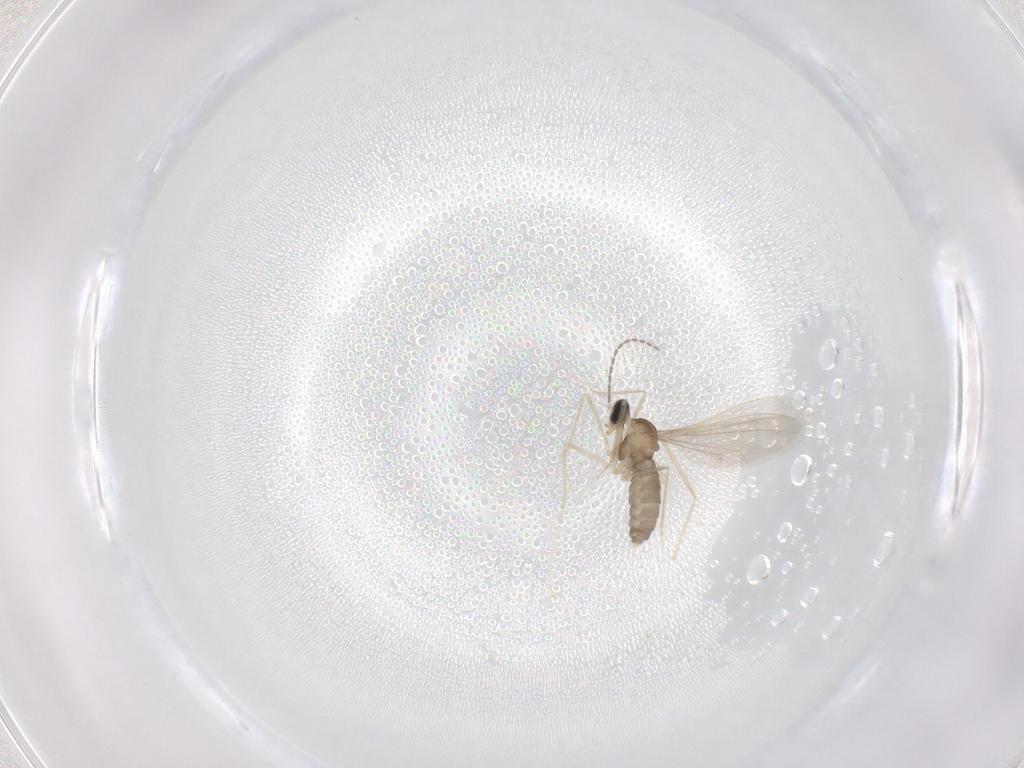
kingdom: Animalia
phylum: Arthropoda
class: Insecta
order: Diptera
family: Cecidomyiidae
